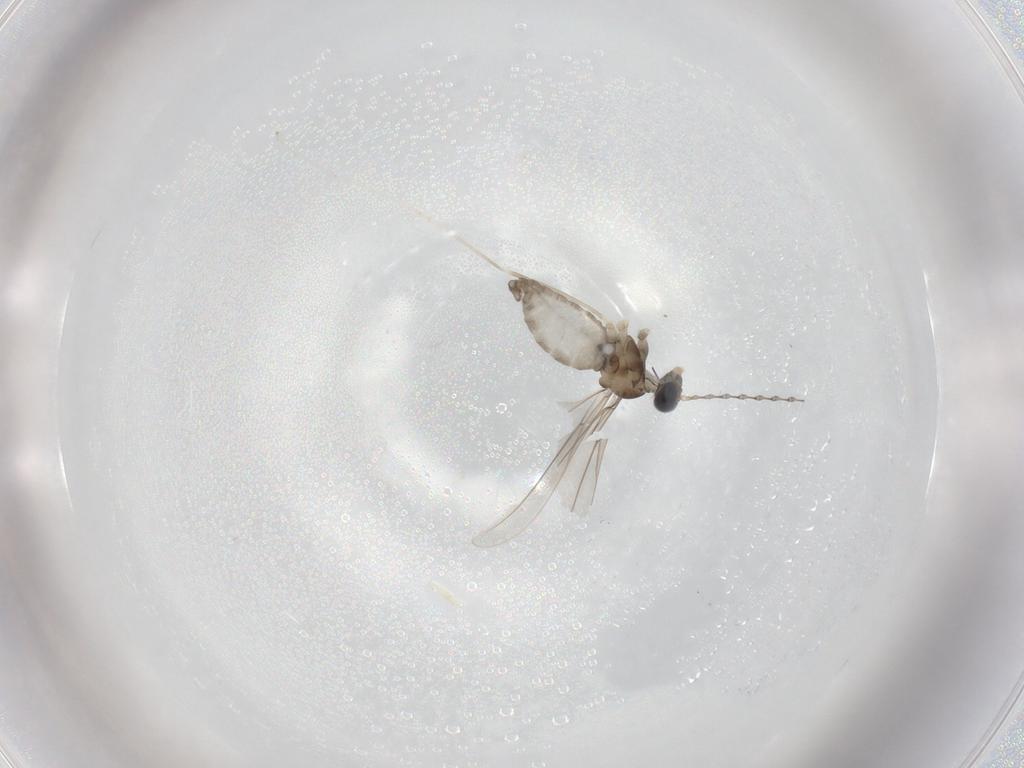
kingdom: Animalia
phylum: Arthropoda
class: Insecta
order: Diptera
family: Cecidomyiidae
